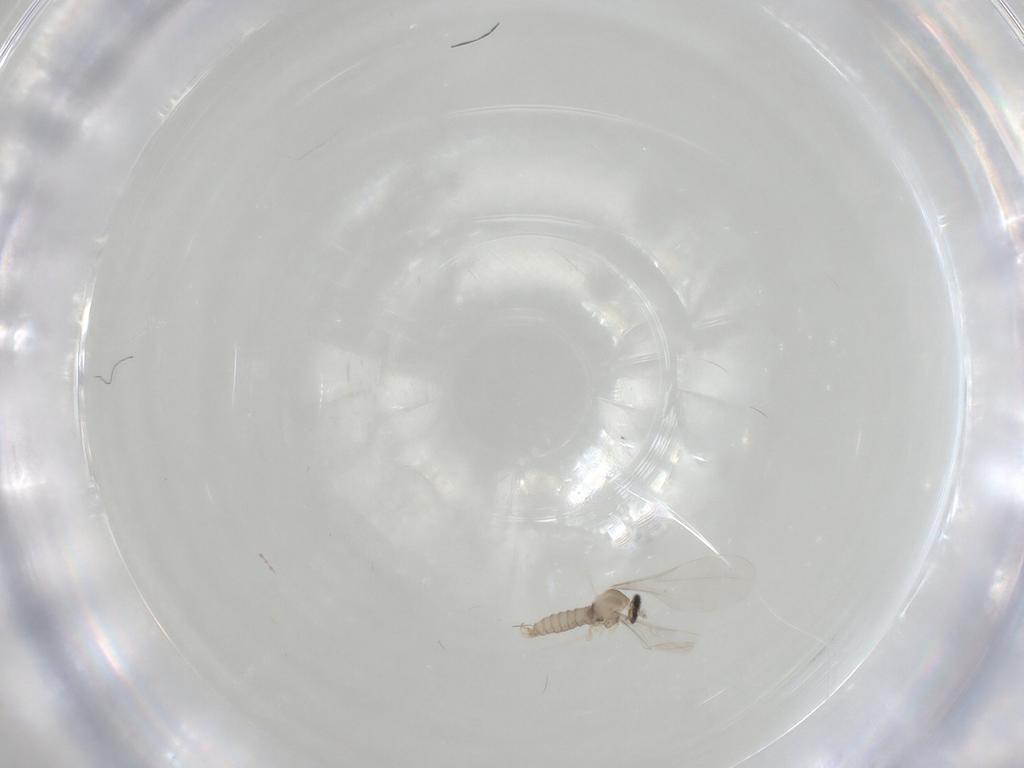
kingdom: Animalia
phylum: Arthropoda
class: Insecta
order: Diptera
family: Cecidomyiidae
